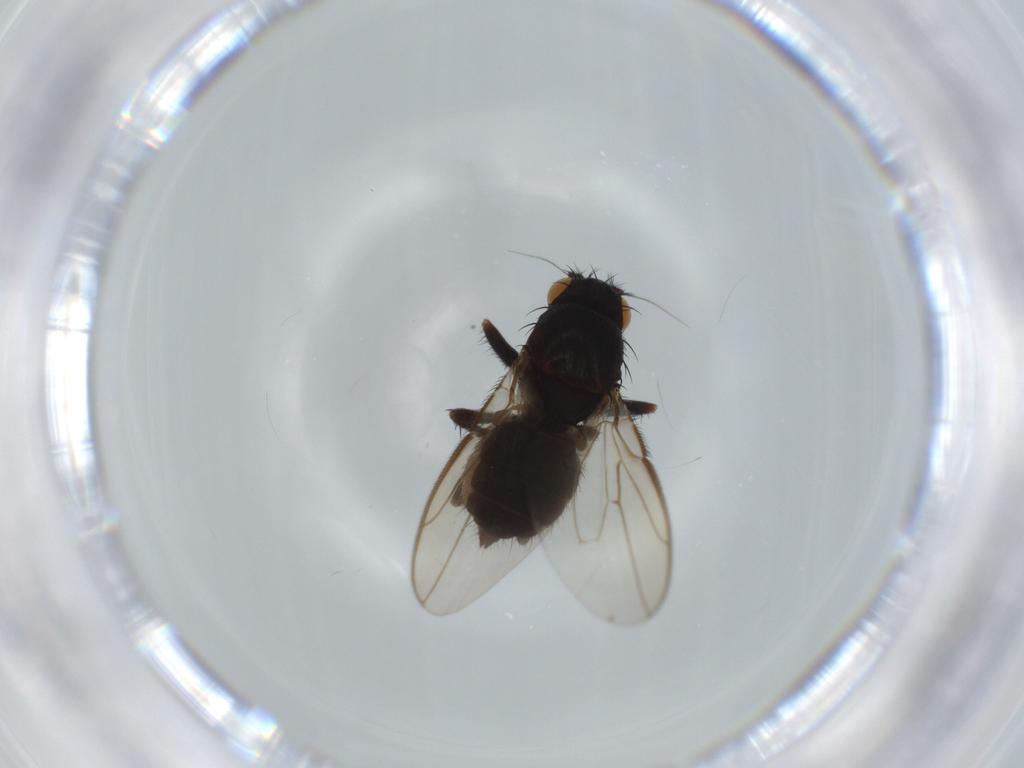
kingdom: Animalia
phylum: Arthropoda
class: Insecta
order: Diptera
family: Sphaeroceridae
